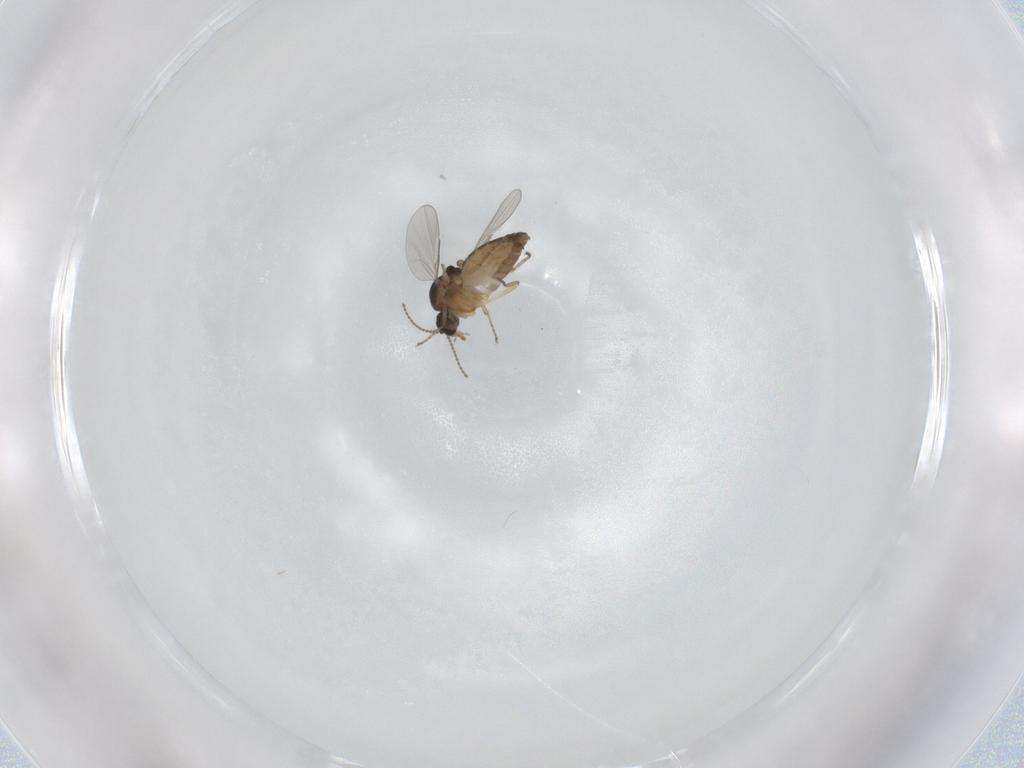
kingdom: Animalia
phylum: Arthropoda
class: Insecta
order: Diptera
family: Ceratopogonidae
